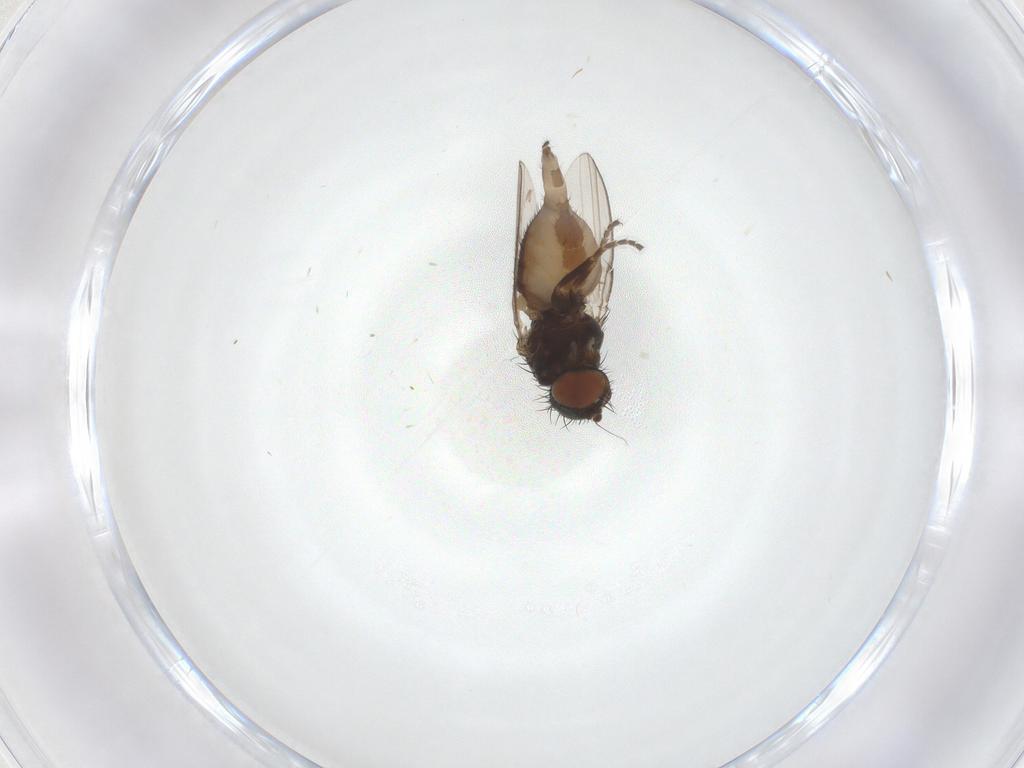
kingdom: Animalia
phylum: Arthropoda
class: Insecta
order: Diptera
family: Milichiidae
